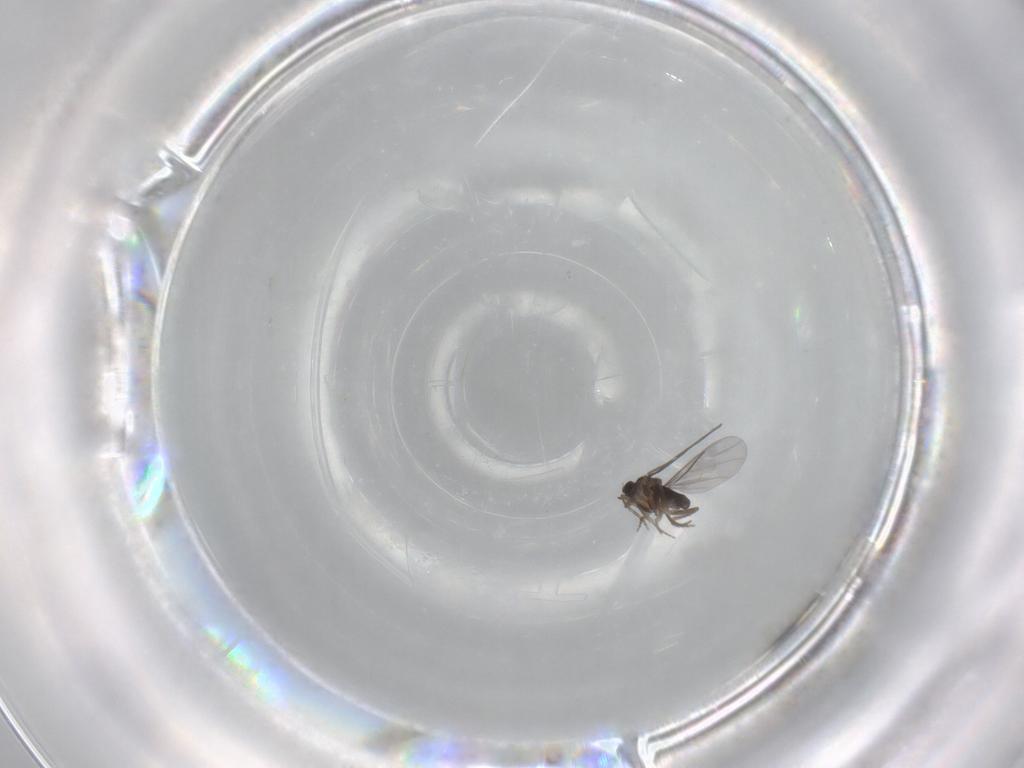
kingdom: Animalia
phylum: Arthropoda
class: Insecta
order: Diptera
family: Cecidomyiidae
